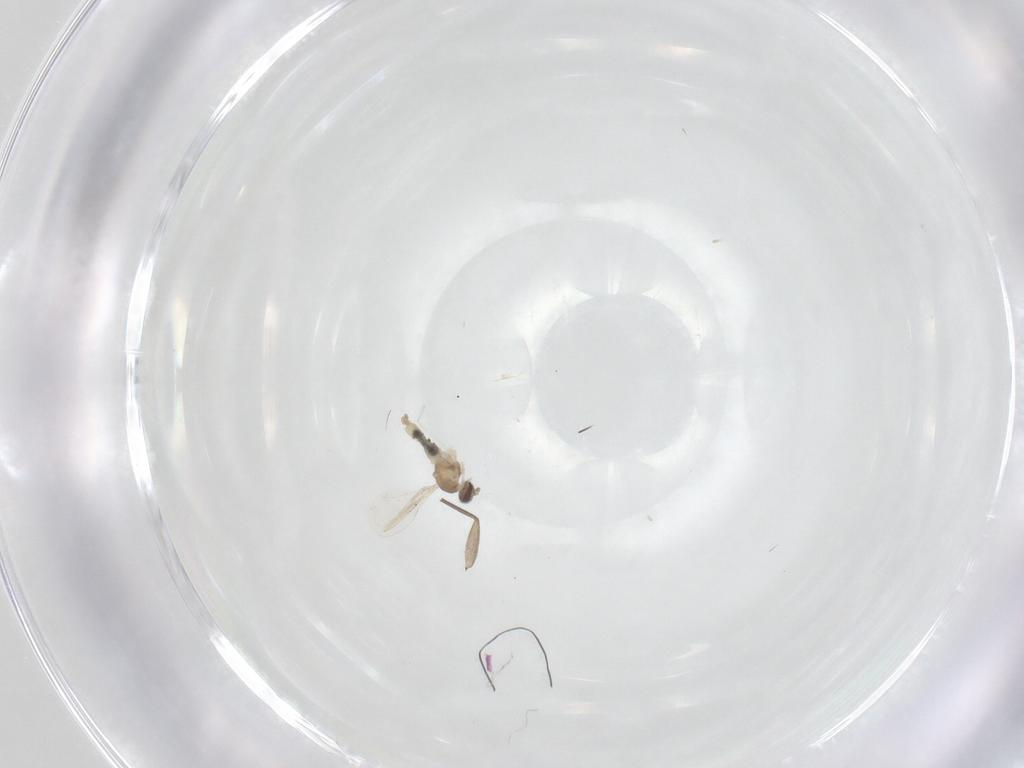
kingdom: Animalia
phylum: Arthropoda
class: Insecta
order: Diptera
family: Cecidomyiidae
